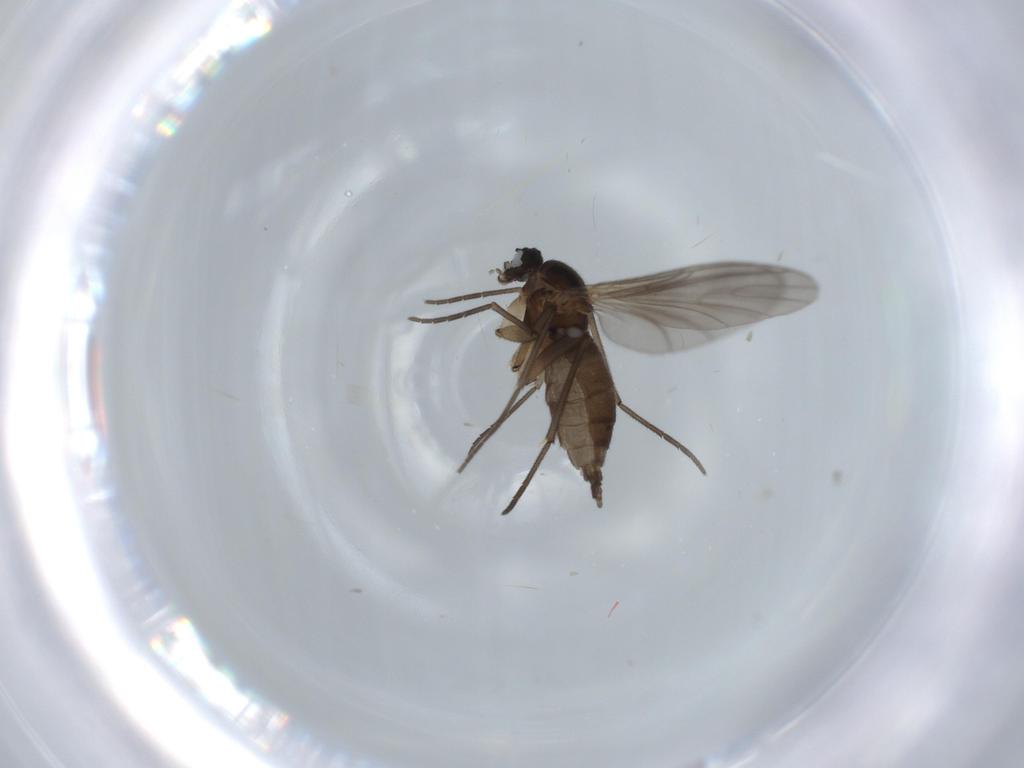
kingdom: Animalia
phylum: Arthropoda
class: Insecta
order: Diptera
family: Sciaridae
